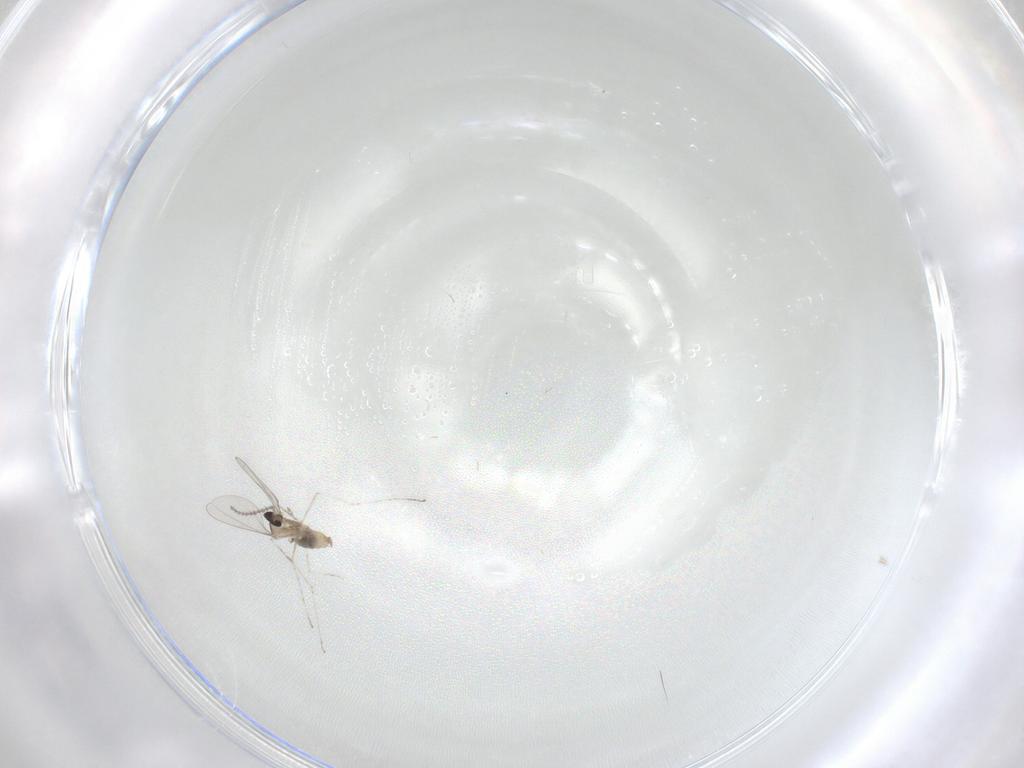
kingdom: Animalia
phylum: Arthropoda
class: Insecta
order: Diptera
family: Cecidomyiidae
